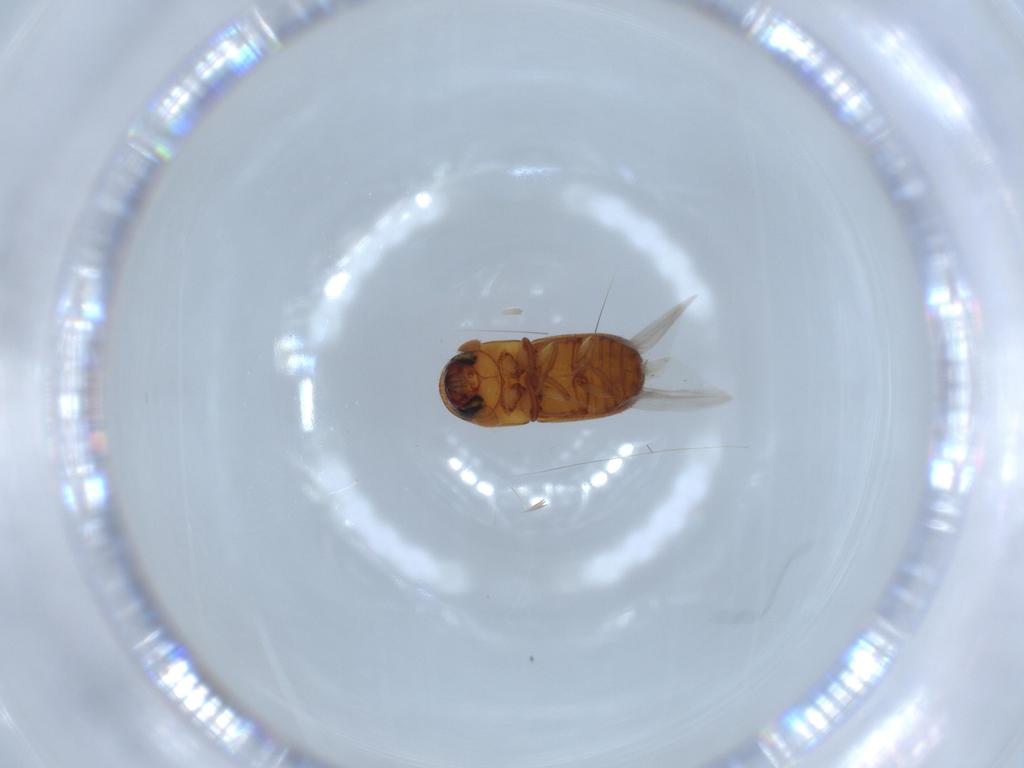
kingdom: Animalia
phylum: Arthropoda
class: Insecta
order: Coleoptera
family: Curculionidae
